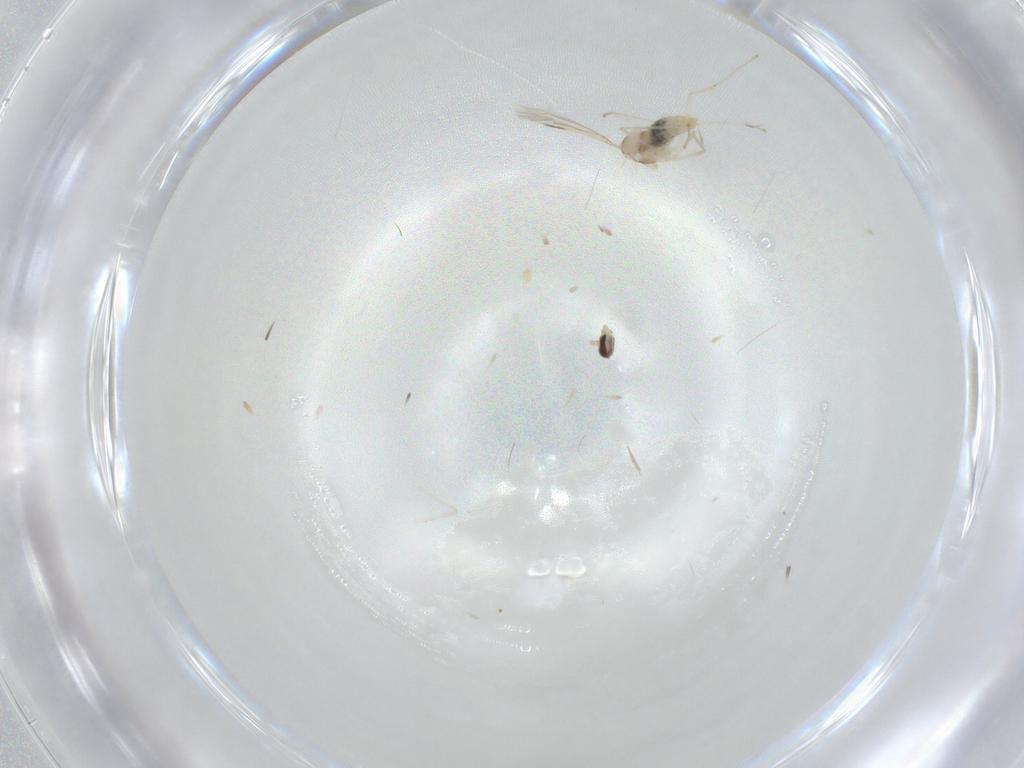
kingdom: Animalia
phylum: Arthropoda
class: Insecta
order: Diptera
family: Cecidomyiidae
